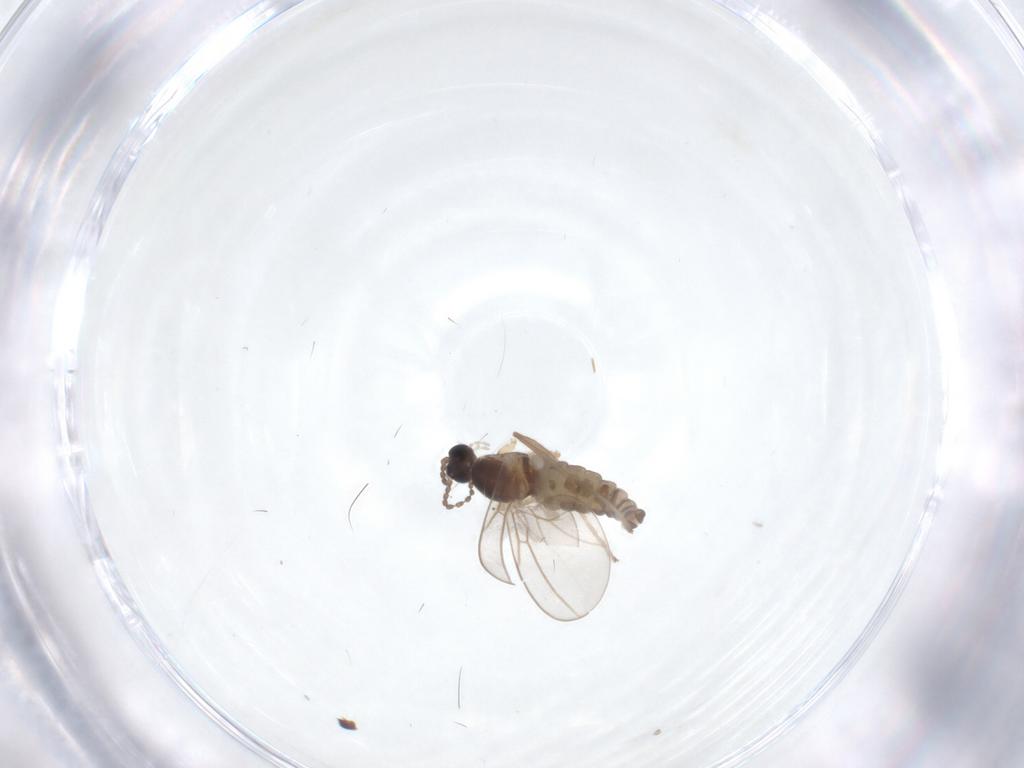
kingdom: Animalia
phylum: Arthropoda
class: Insecta
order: Diptera
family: Cecidomyiidae
